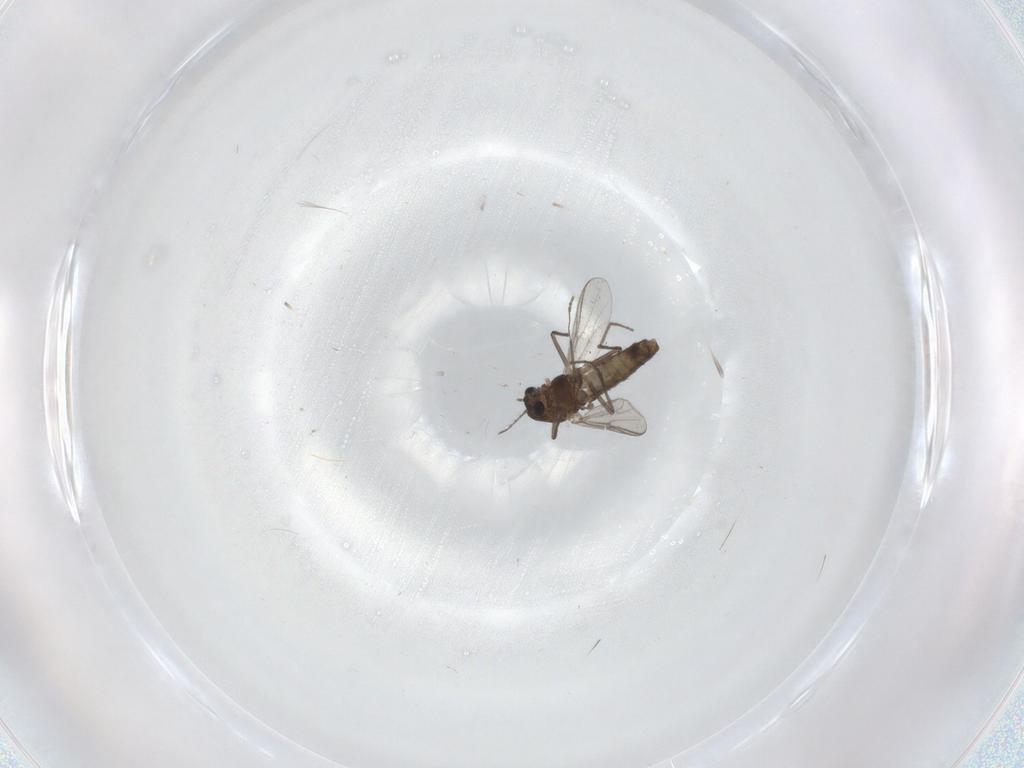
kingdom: Animalia
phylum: Arthropoda
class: Insecta
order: Diptera
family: Chironomidae
